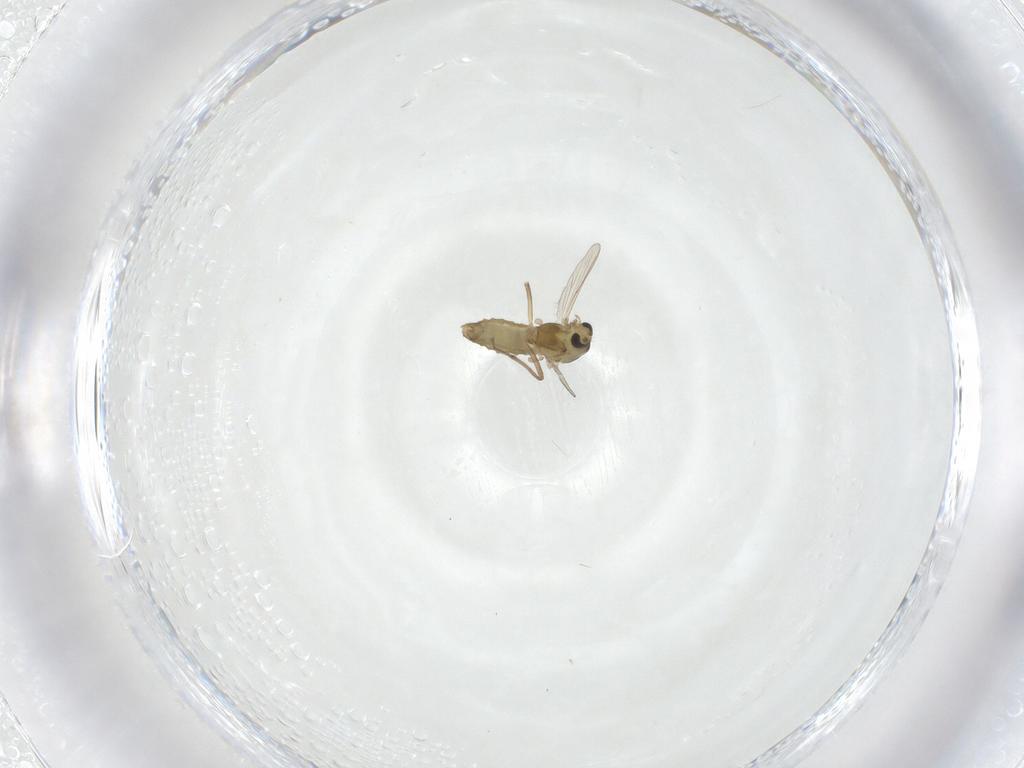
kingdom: Animalia
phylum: Arthropoda
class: Insecta
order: Diptera
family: Chironomidae
